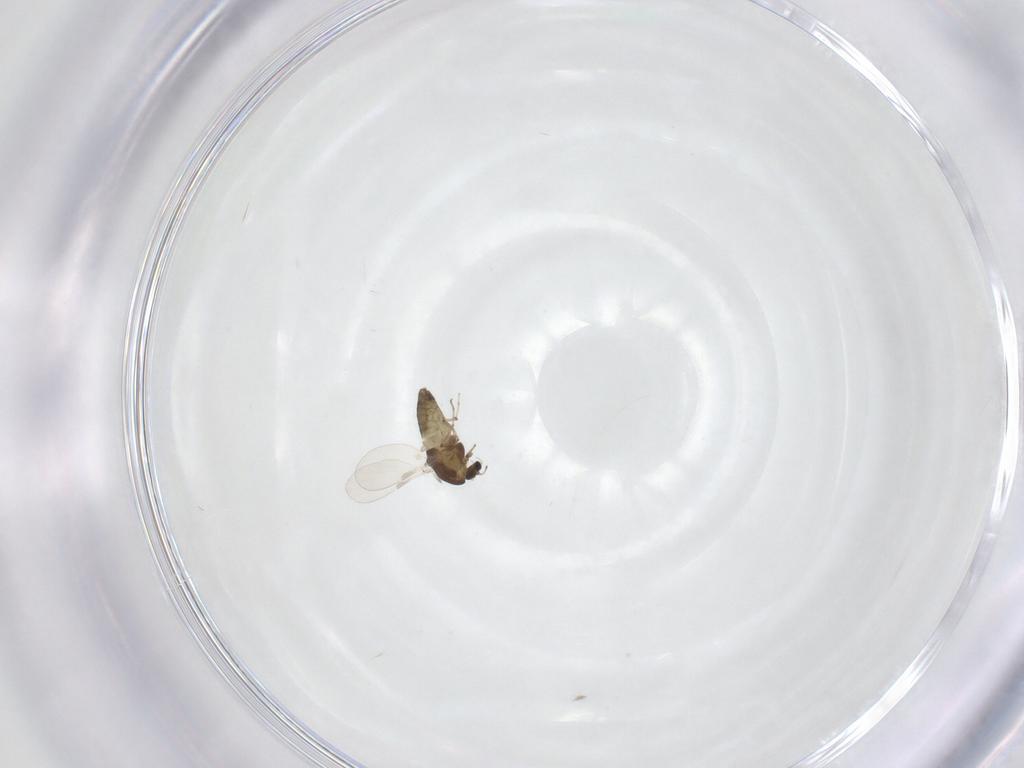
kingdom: Animalia
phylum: Arthropoda
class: Insecta
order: Diptera
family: Chironomidae
